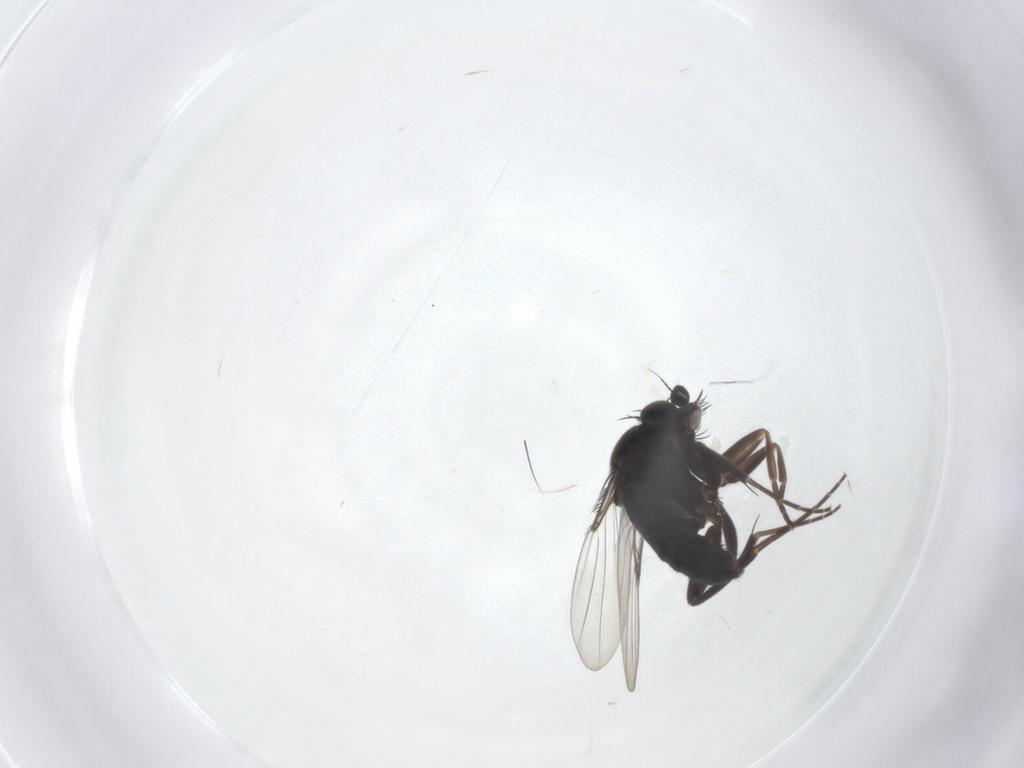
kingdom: Animalia
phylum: Arthropoda
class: Insecta
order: Diptera
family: Phoridae
